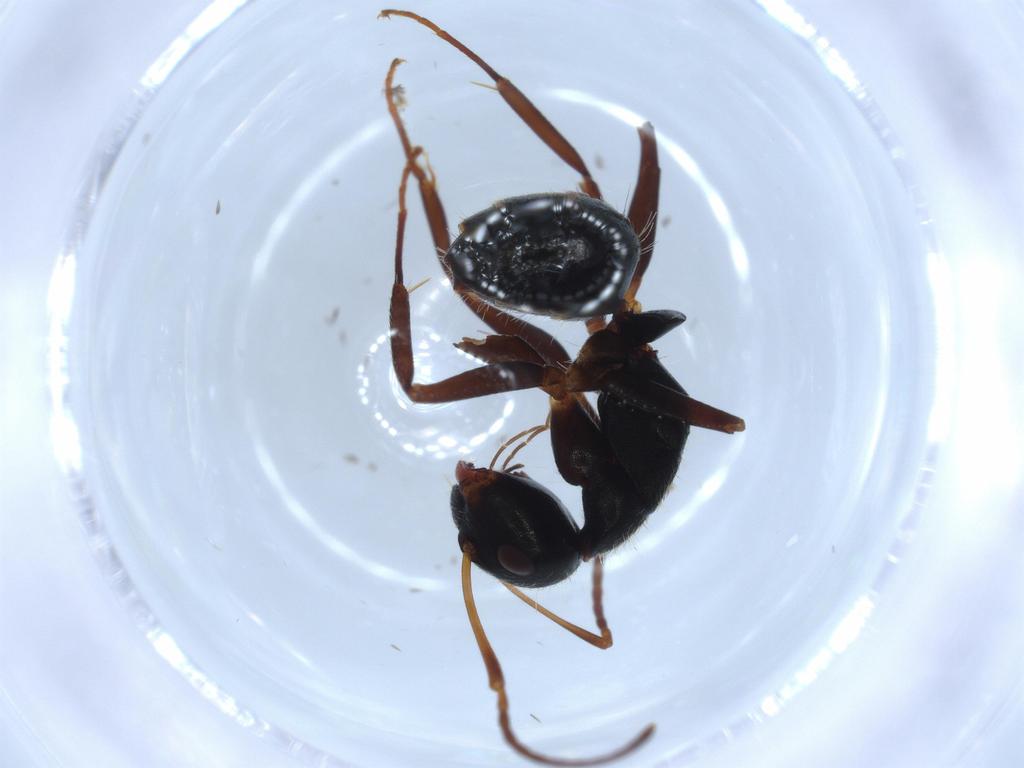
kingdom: Animalia
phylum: Arthropoda
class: Insecta
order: Hymenoptera
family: Formicidae
